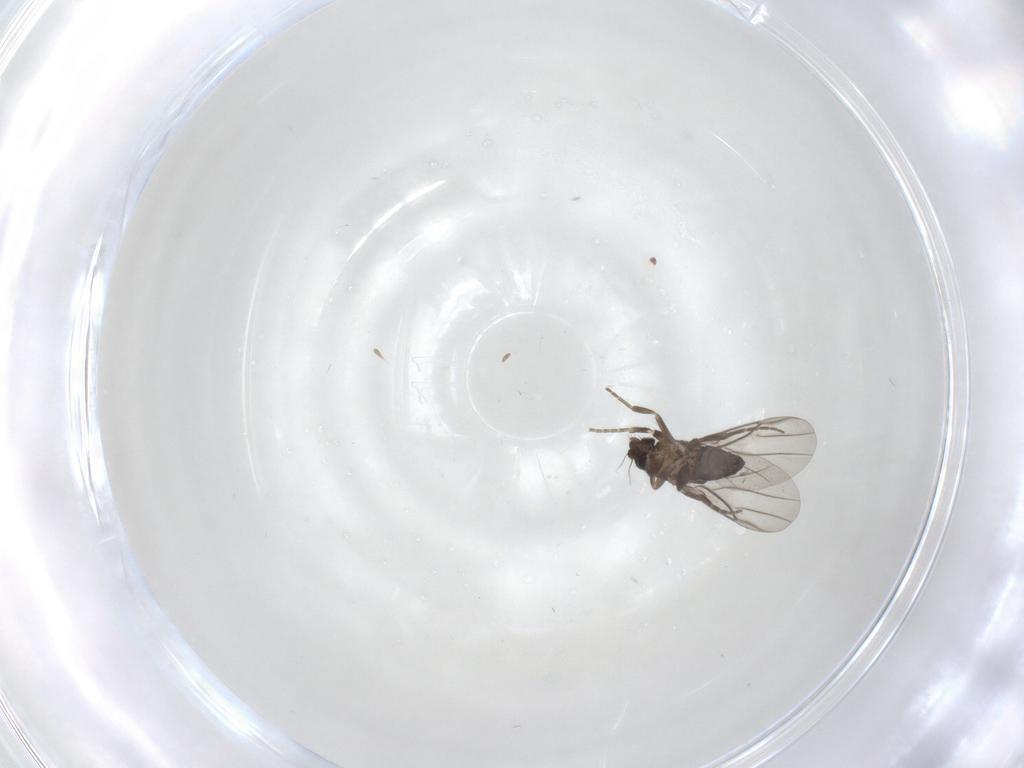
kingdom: Animalia
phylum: Arthropoda
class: Insecta
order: Diptera
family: Phoridae
